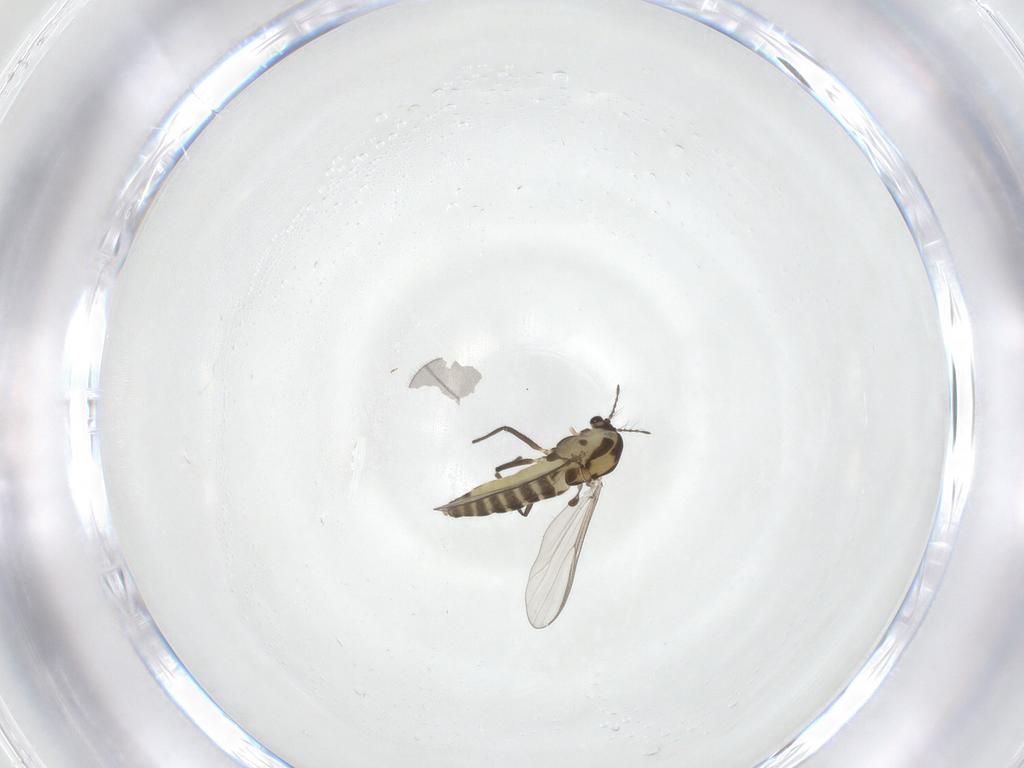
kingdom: Animalia
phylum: Arthropoda
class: Insecta
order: Diptera
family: Chironomidae
